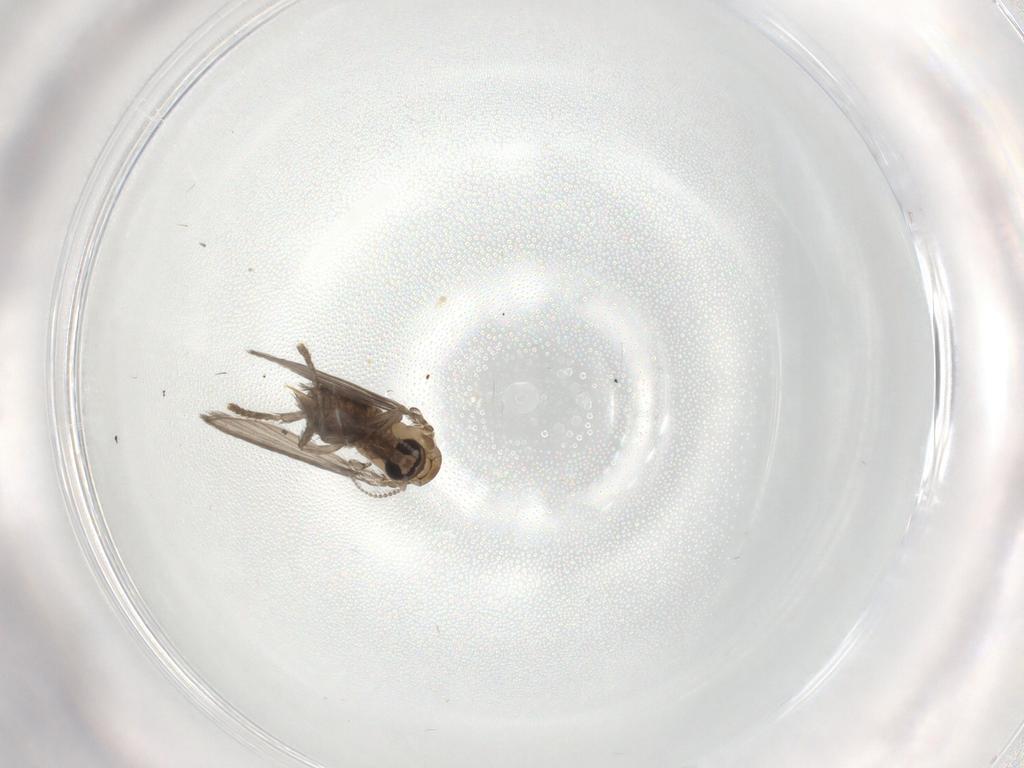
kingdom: Animalia
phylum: Arthropoda
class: Insecta
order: Diptera
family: Psychodidae
